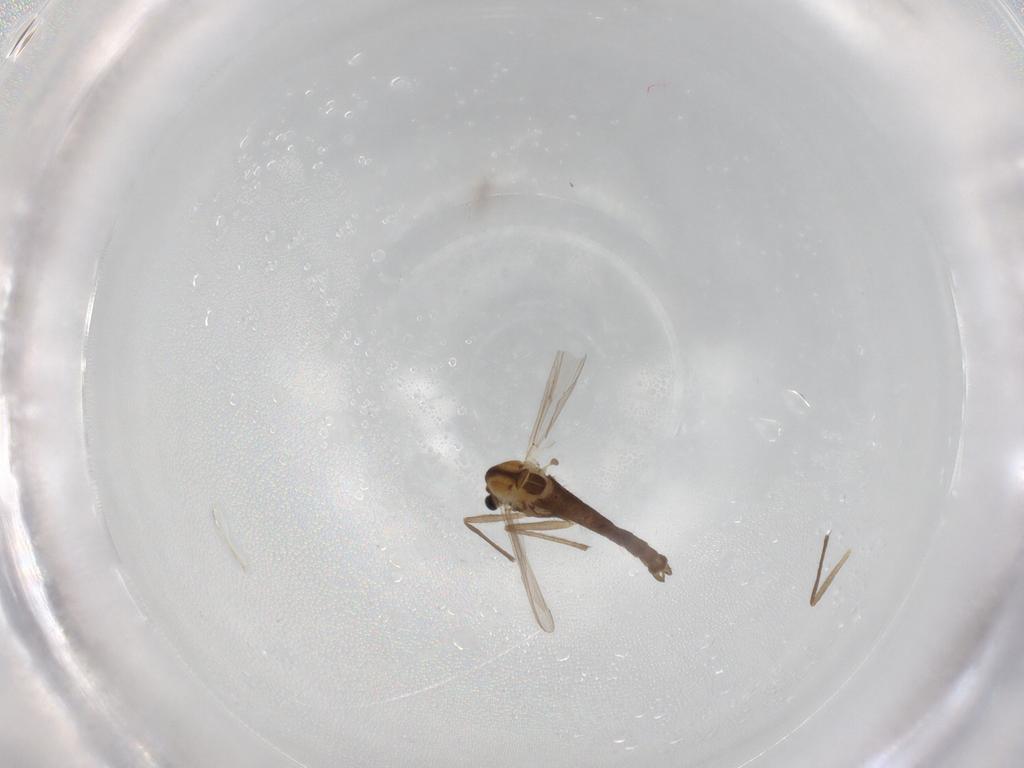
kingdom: Animalia
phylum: Arthropoda
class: Insecta
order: Diptera
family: Chironomidae
